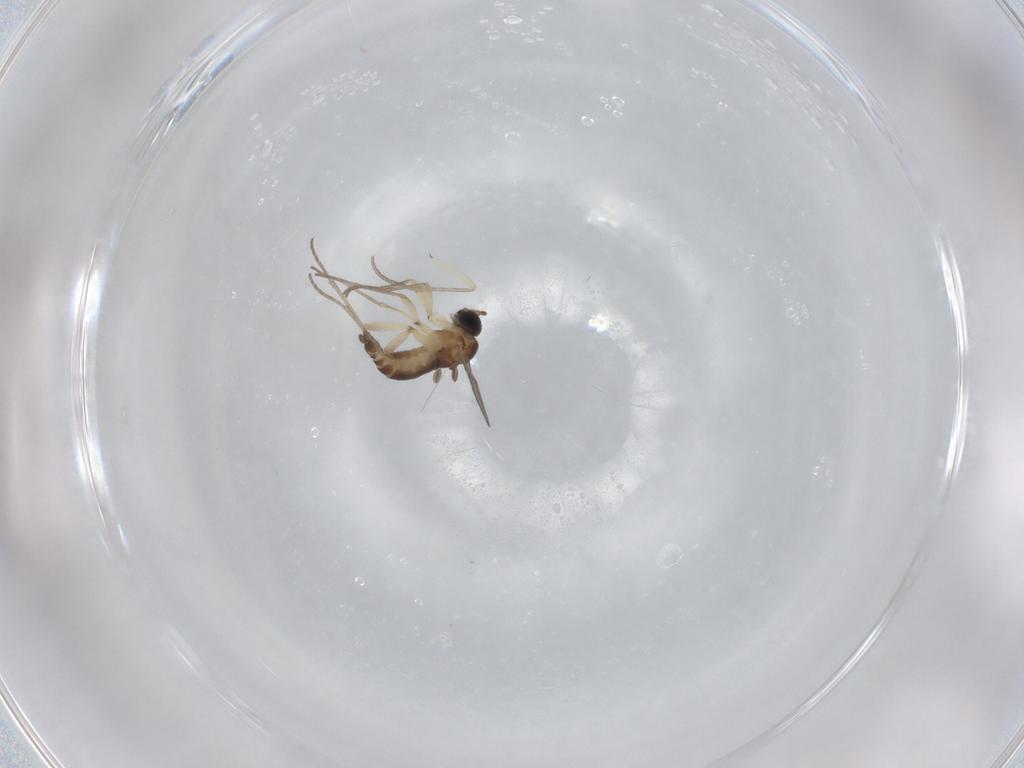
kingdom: Animalia
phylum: Arthropoda
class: Insecta
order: Diptera
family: Sciaridae
